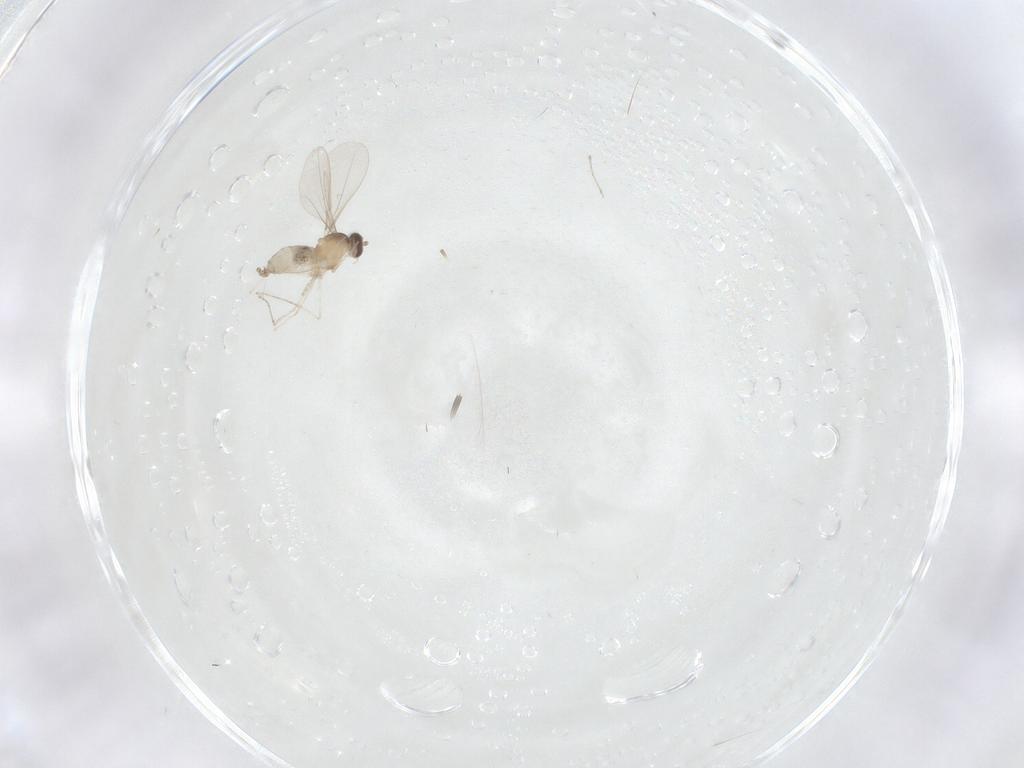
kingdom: Animalia
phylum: Arthropoda
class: Insecta
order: Diptera
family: Cecidomyiidae
